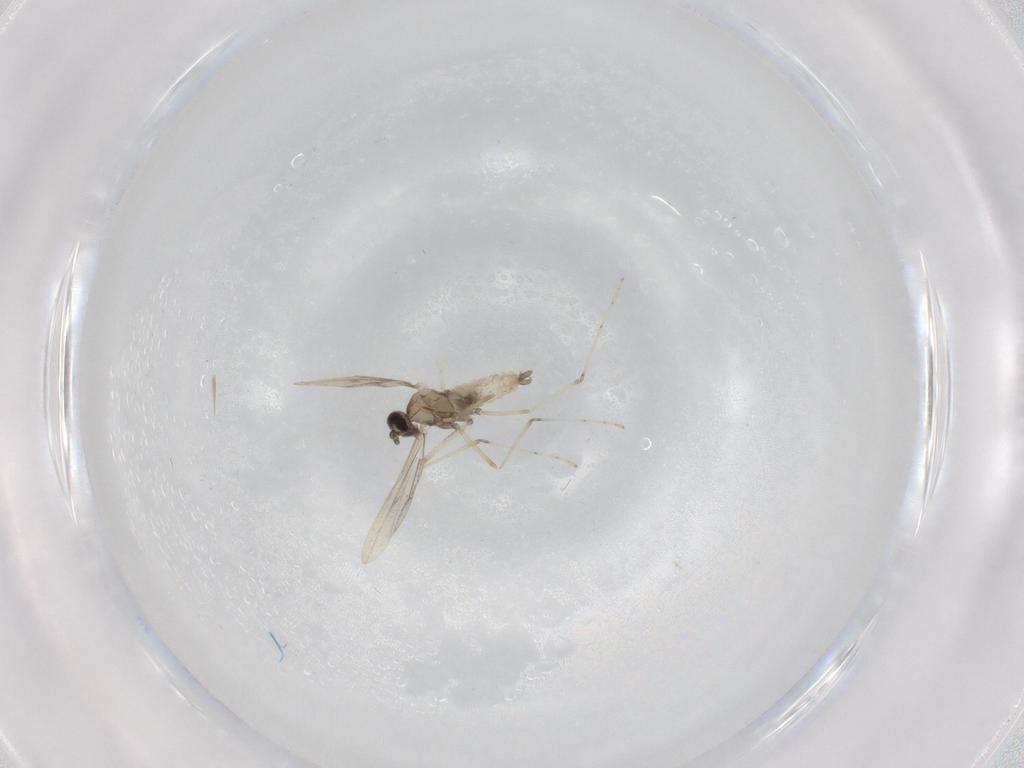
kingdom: Animalia
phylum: Arthropoda
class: Insecta
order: Diptera
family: Cecidomyiidae
